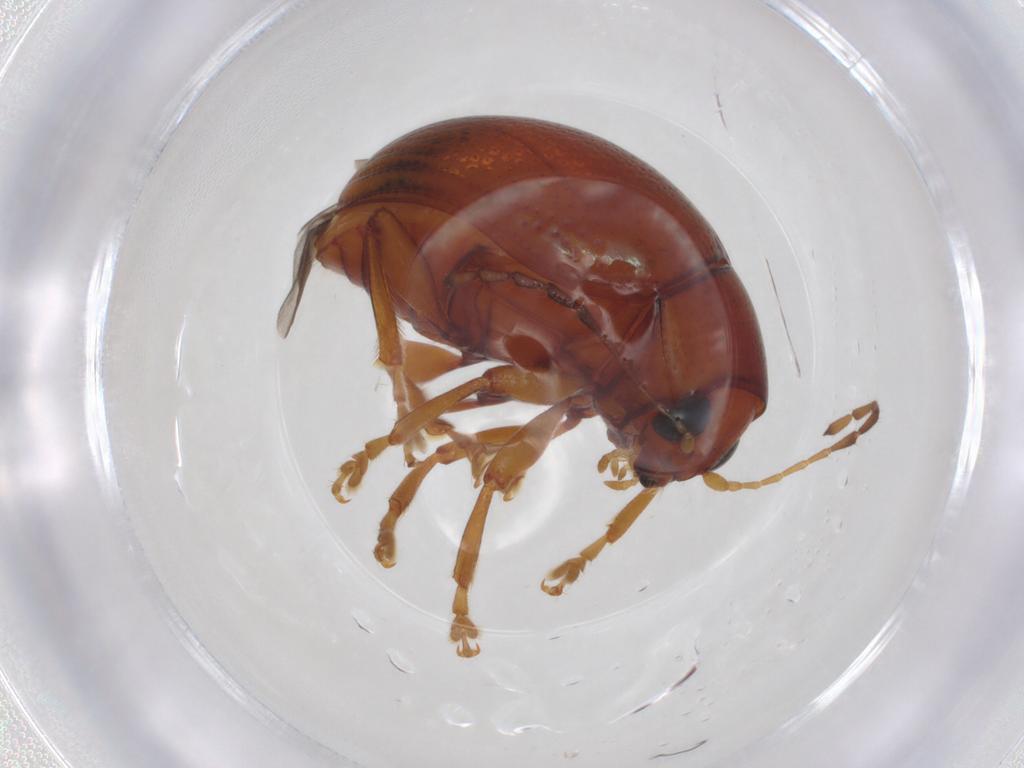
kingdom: Animalia
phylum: Arthropoda
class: Insecta
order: Coleoptera
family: Chrysomelidae
